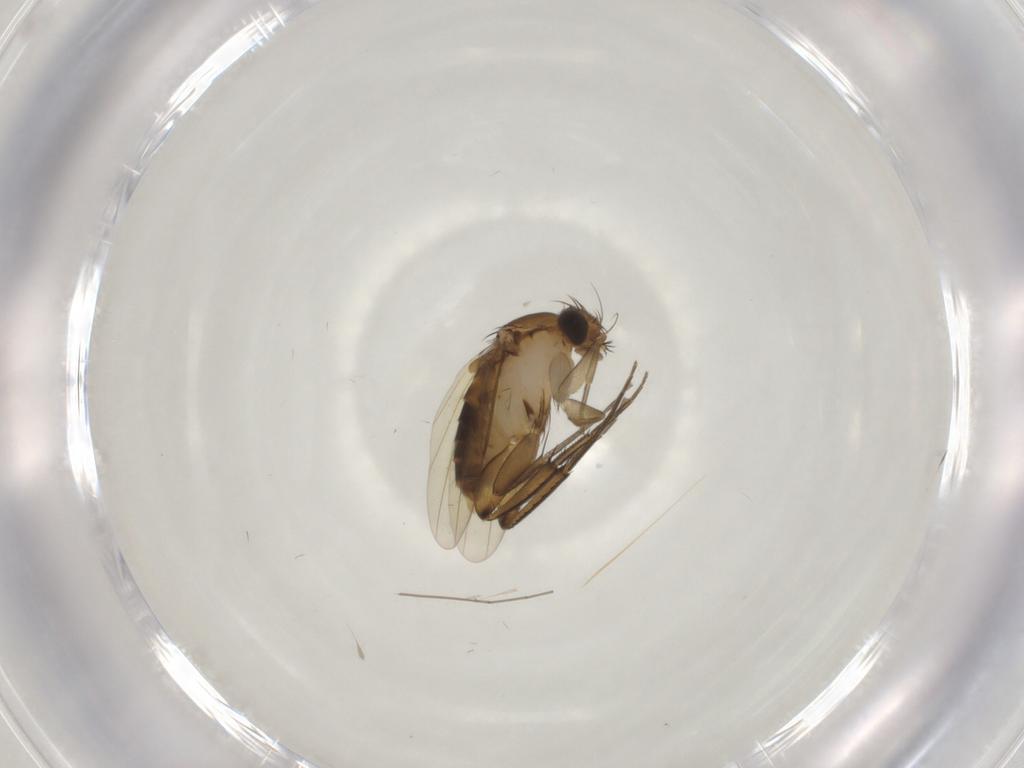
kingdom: Animalia
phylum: Arthropoda
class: Insecta
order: Diptera
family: Phoridae
